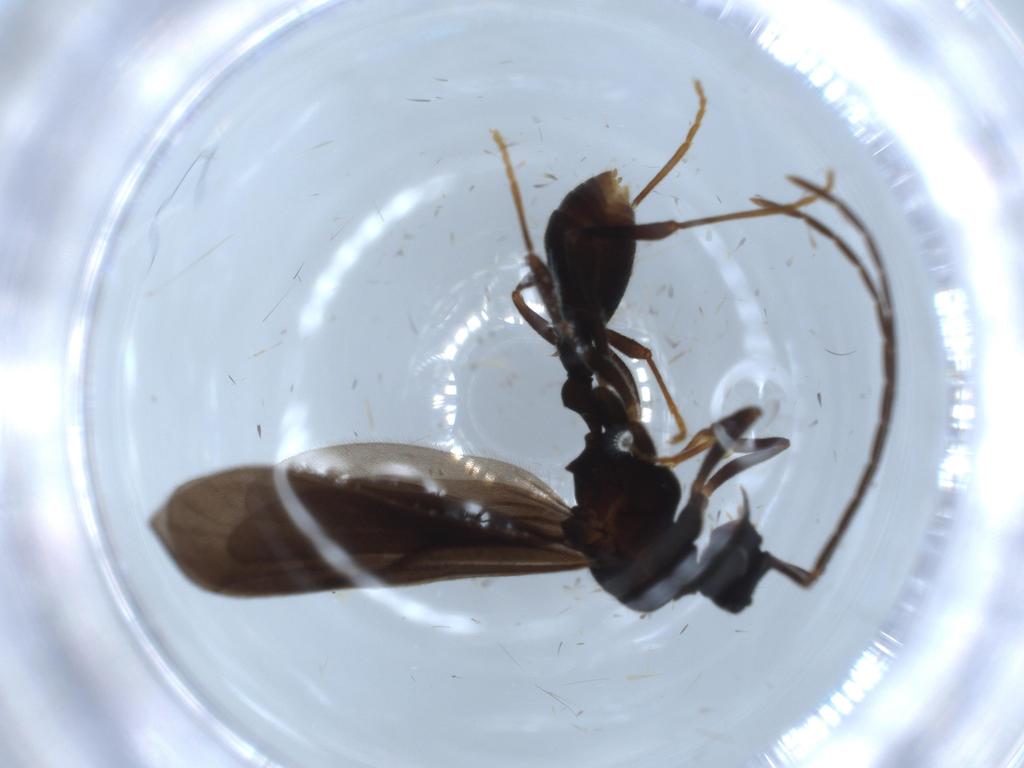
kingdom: Animalia
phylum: Arthropoda
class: Insecta
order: Hymenoptera
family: Formicidae
